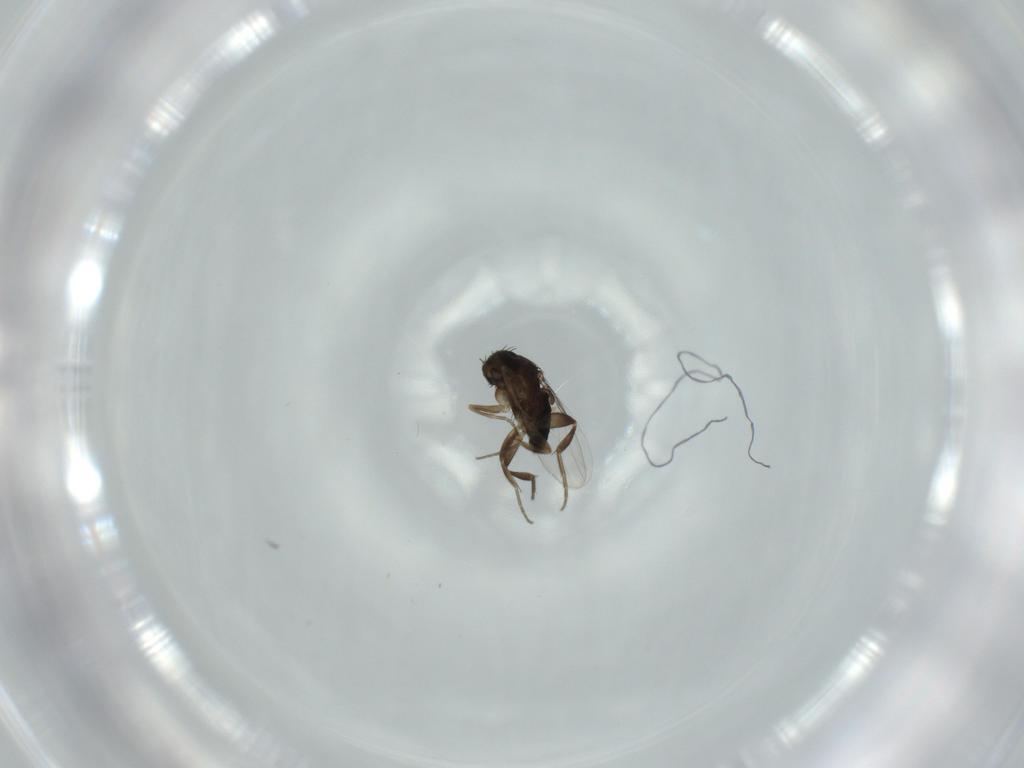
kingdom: Animalia
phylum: Arthropoda
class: Insecta
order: Diptera
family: Phoridae
